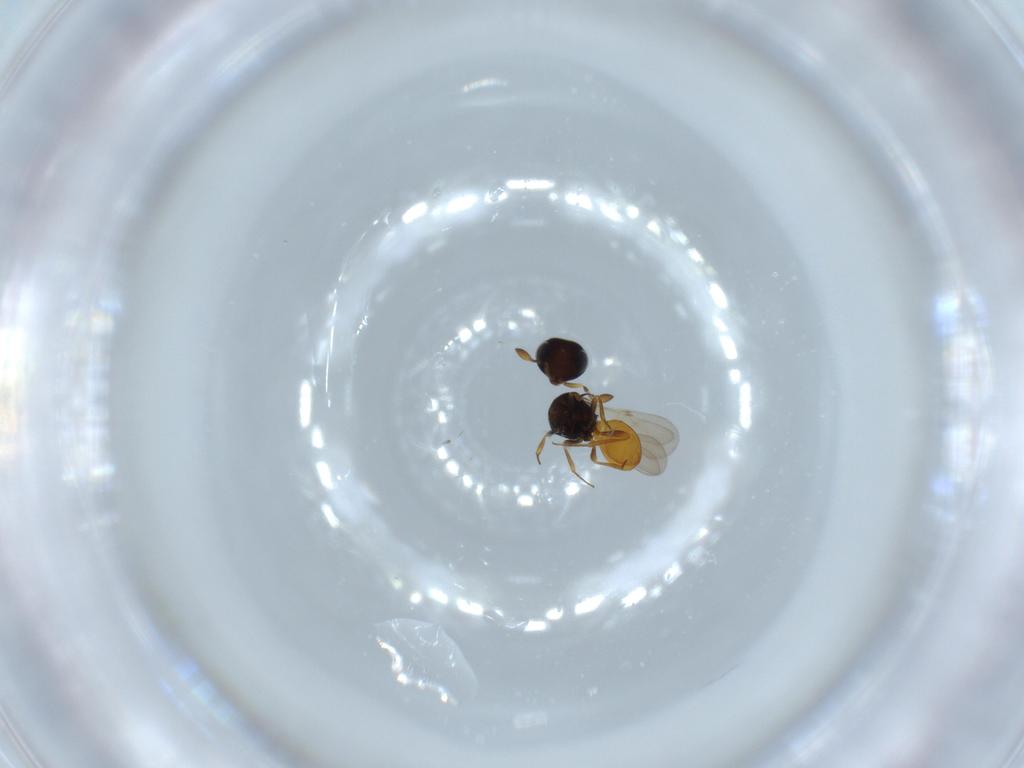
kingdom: Animalia
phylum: Arthropoda
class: Insecta
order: Hymenoptera
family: Scelionidae
